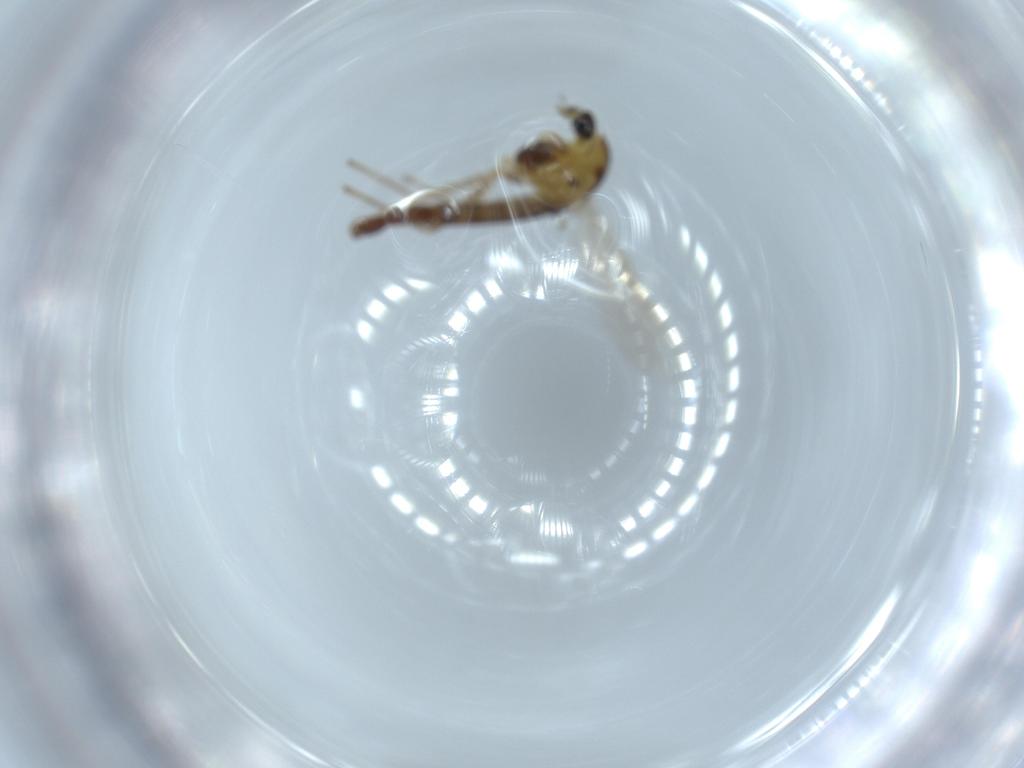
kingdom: Animalia
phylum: Arthropoda
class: Insecta
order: Diptera
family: Chironomidae
